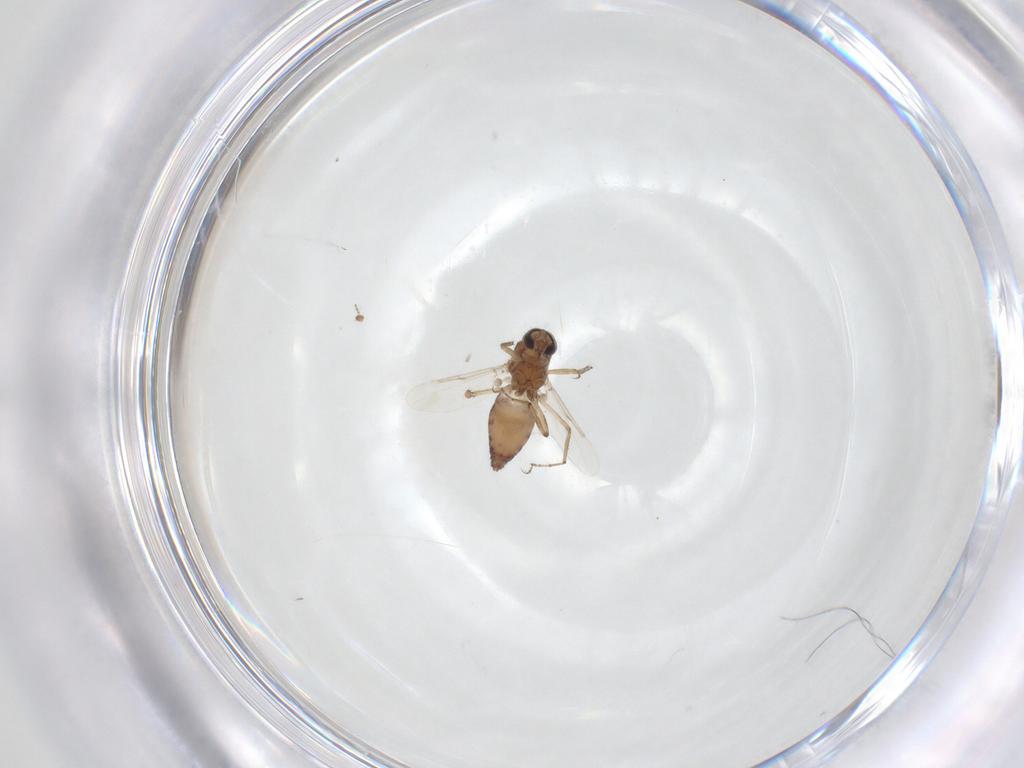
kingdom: Animalia
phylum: Arthropoda
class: Insecta
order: Diptera
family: Ceratopogonidae
